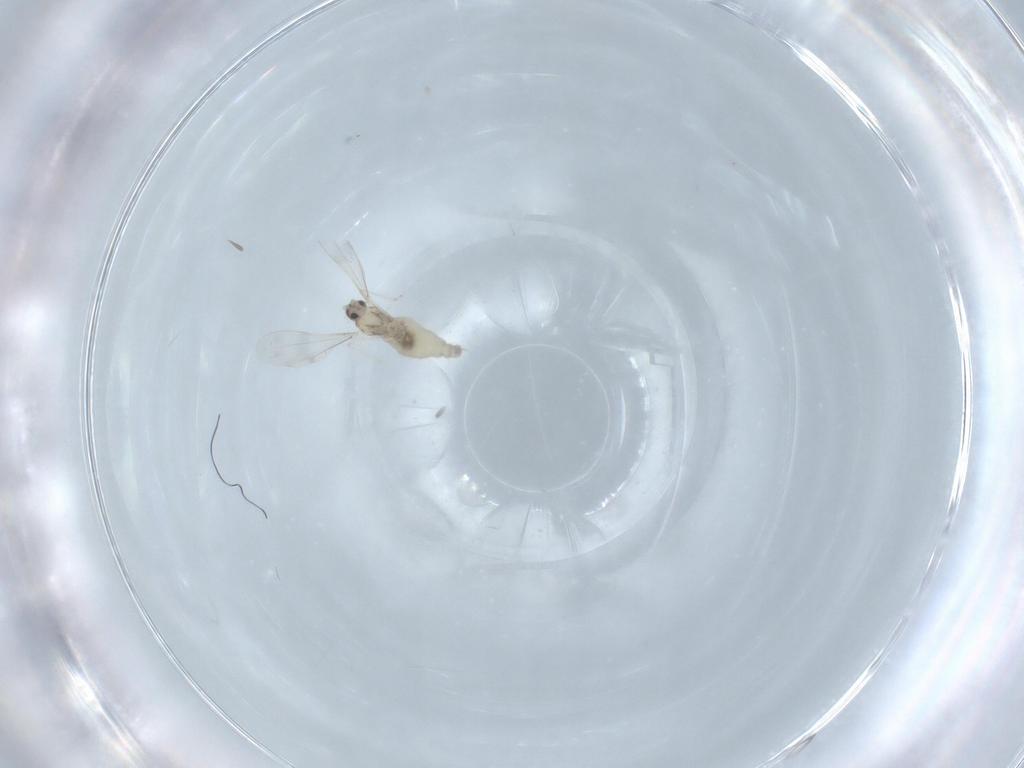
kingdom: Animalia
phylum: Arthropoda
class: Insecta
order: Diptera
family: Cecidomyiidae
